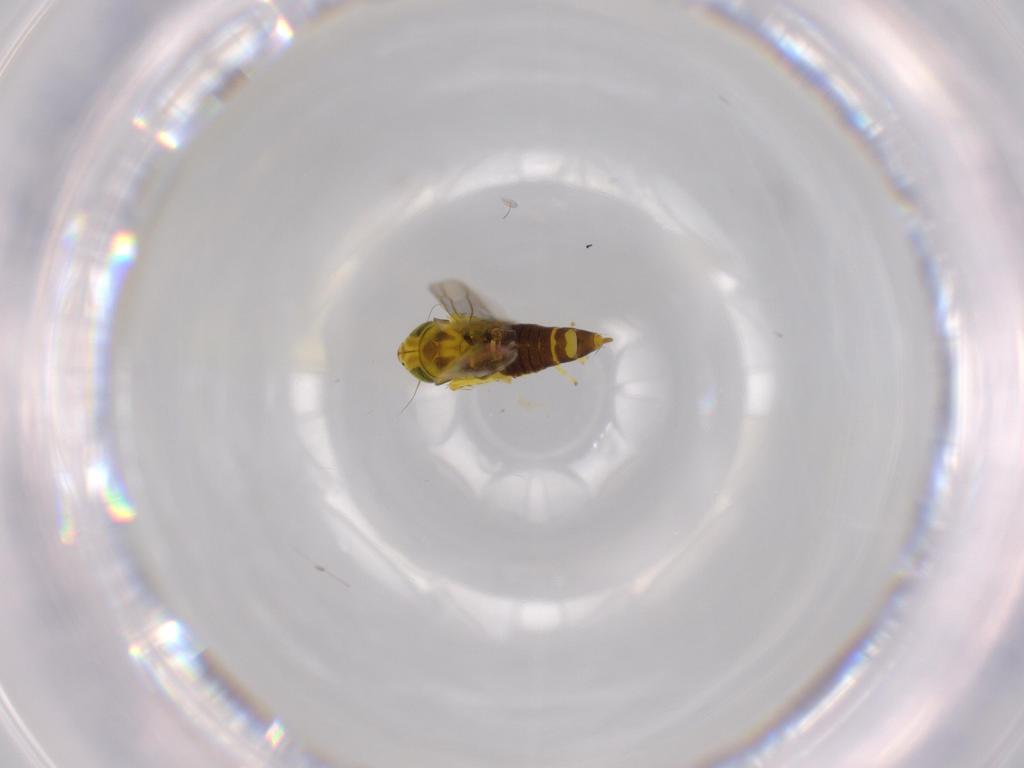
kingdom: Animalia
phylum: Arthropoda
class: Insecta
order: Hemiptera
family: Cicadellidae
